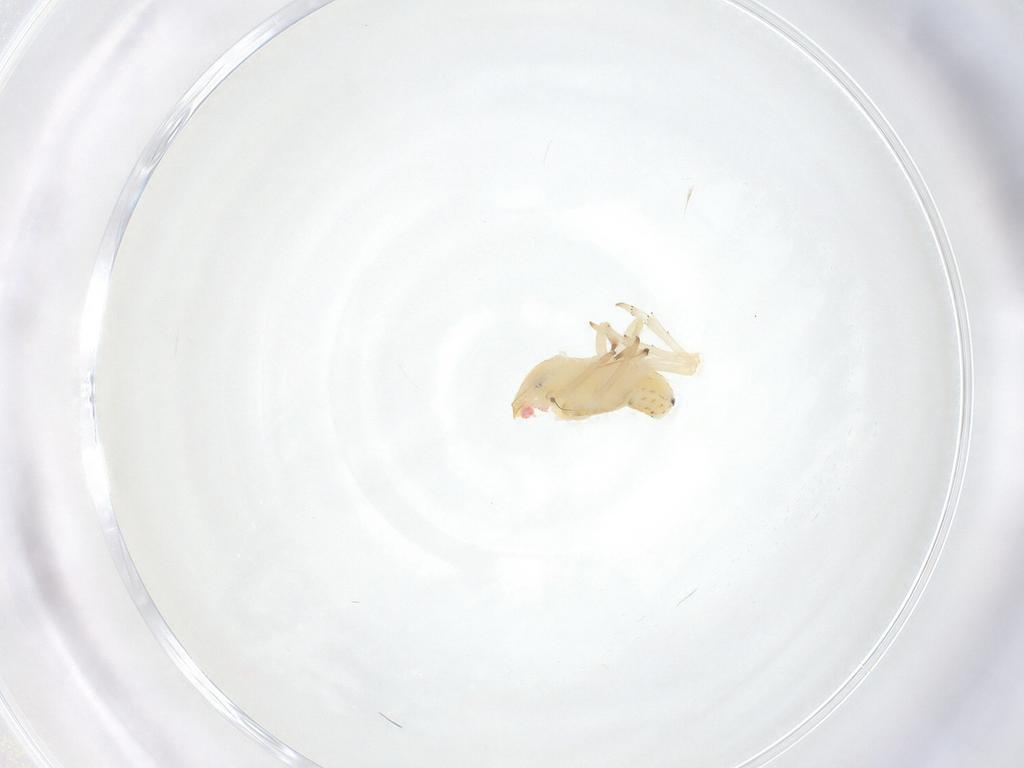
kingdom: Animalia
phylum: Arthropoda
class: Insecta
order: Hemiptera
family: Tropiduchidae
